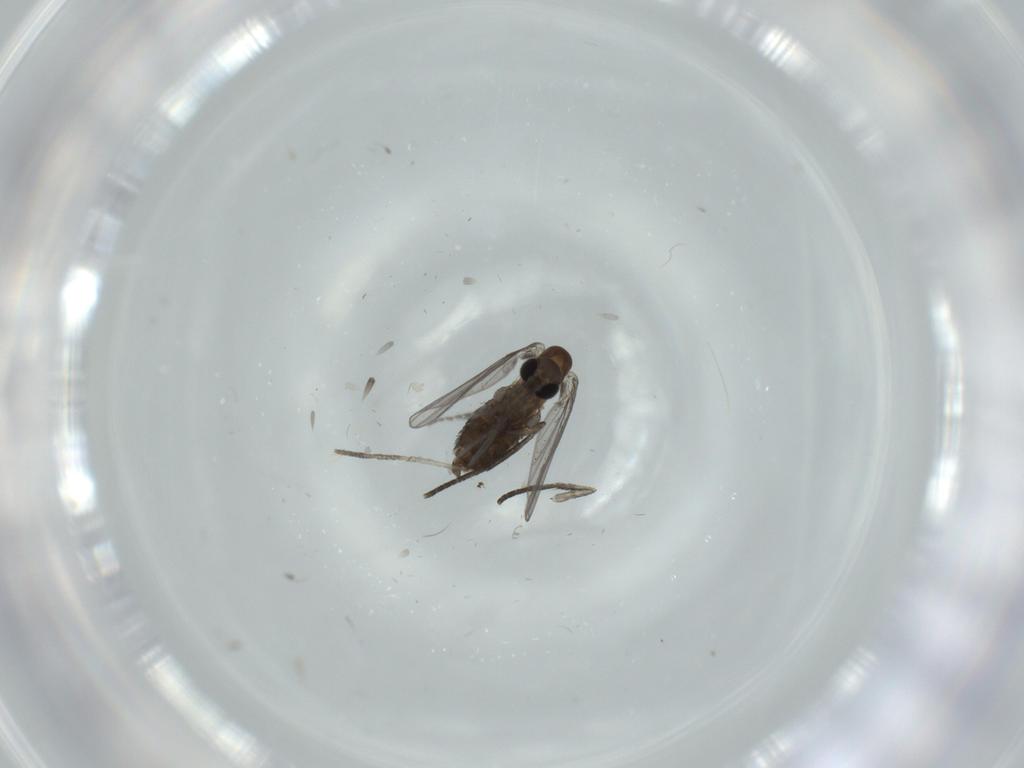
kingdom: Animalia
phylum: Arthropoda
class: Insecta
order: Diptera
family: Psychodidae
